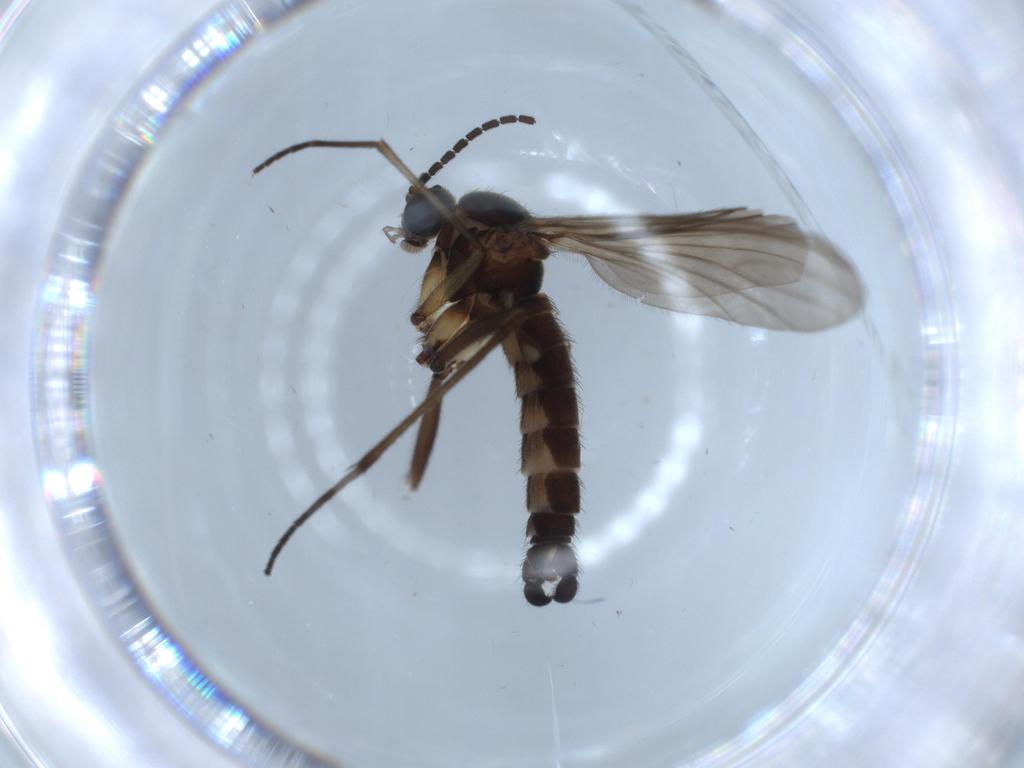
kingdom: Animalia
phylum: Arthropoda
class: Insecta
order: Diptera
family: Sciaridae
